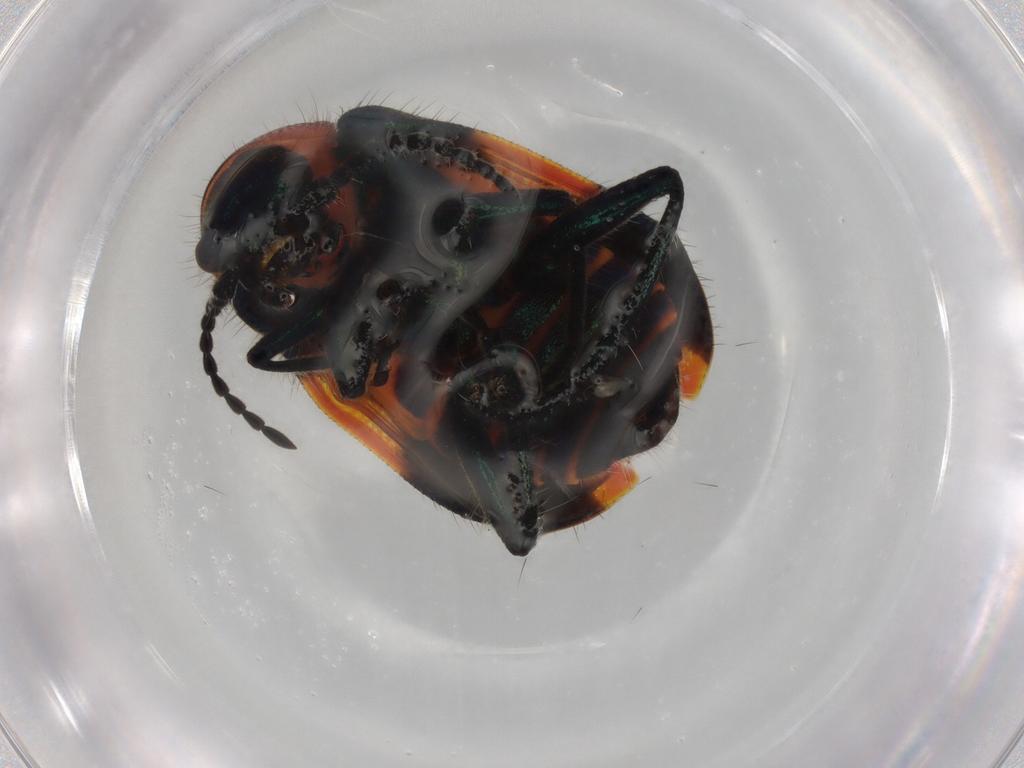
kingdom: Animalia
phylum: Arthropoda
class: Insecta
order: Coleoptera
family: Melyridae
